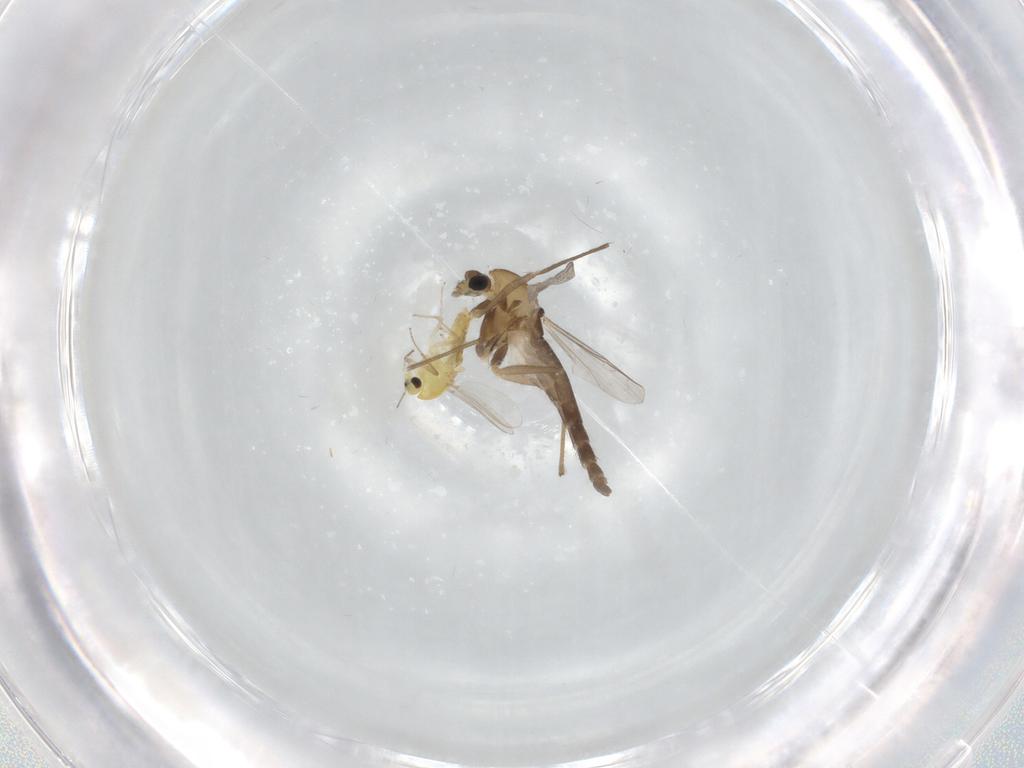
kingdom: Animalia
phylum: Arthropoda
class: Insecta
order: Diptera
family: Chironomidae
